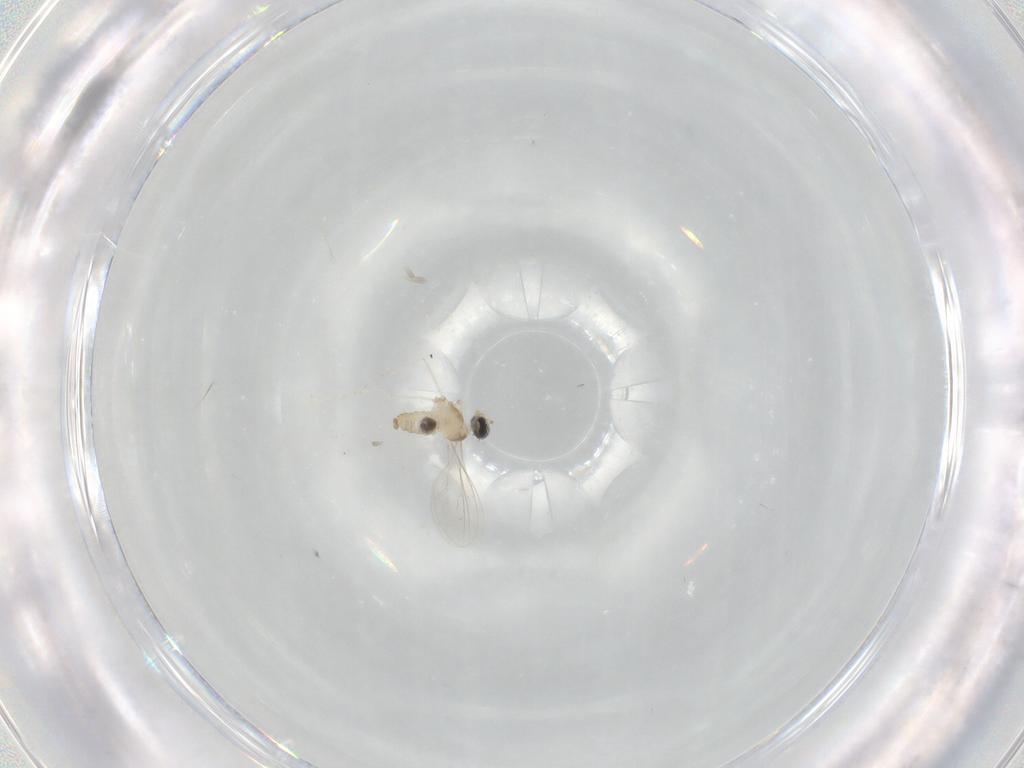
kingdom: Animalia
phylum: Arthropoda
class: Insecta
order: Diptera
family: Cecidomyiidae
